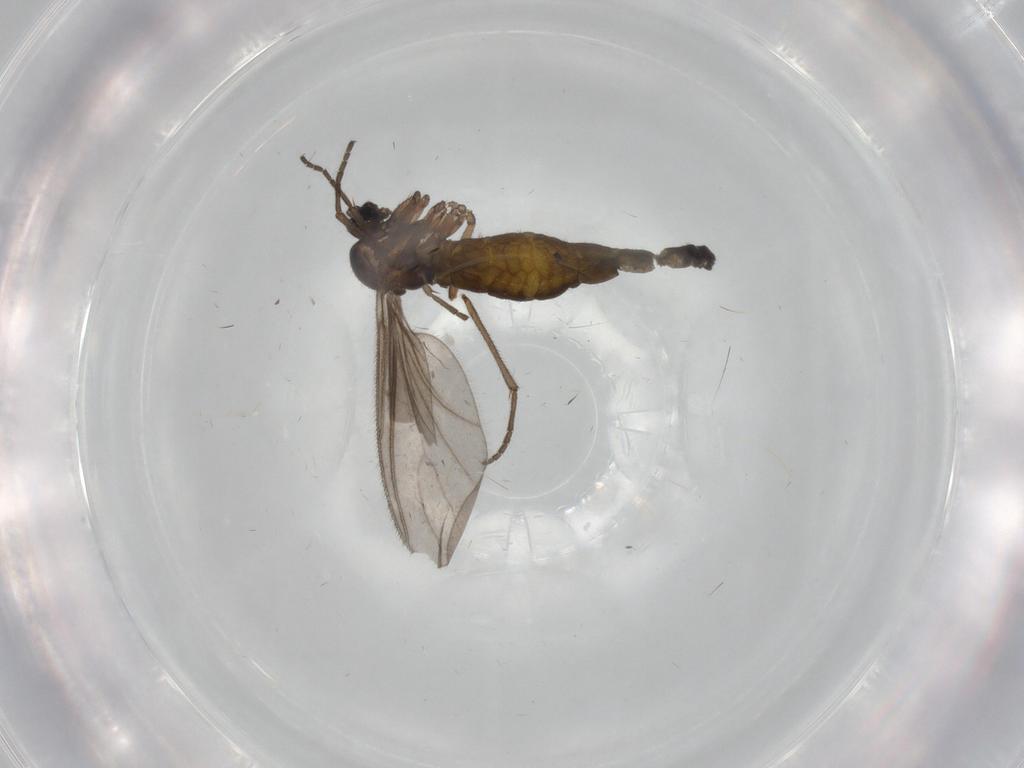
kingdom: Animalia
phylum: Arthropoda
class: Insecta
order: Diptera
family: Sciaridae
